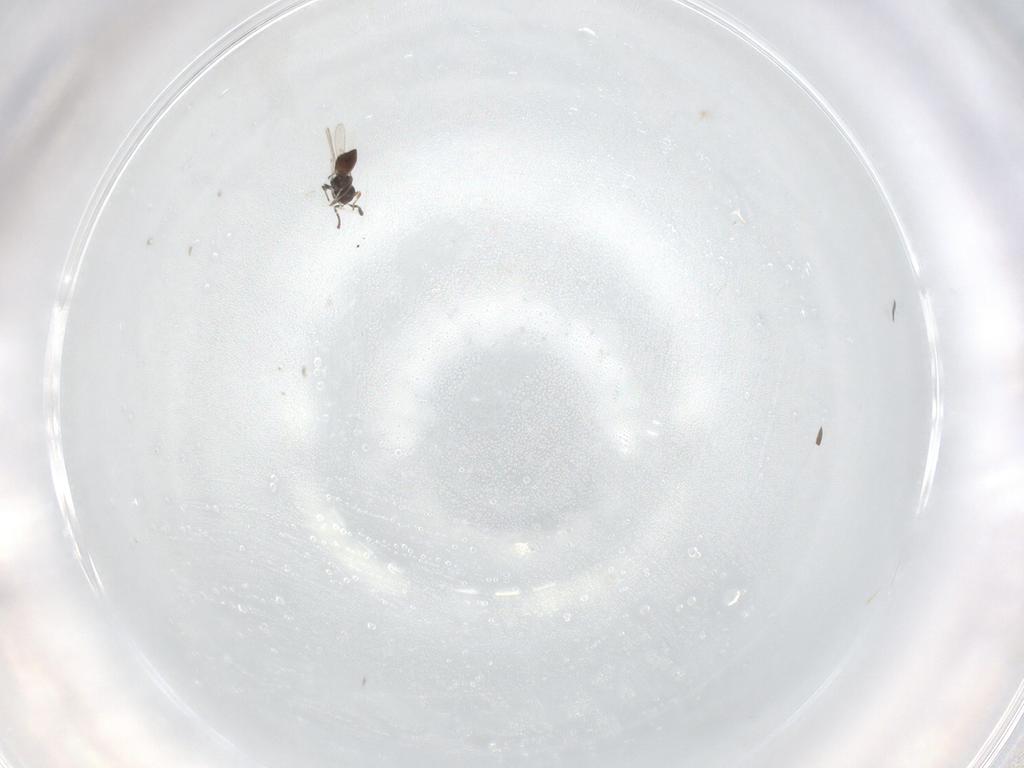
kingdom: Animalia
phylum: Arthropoda
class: Insecta
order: Hymenoptera
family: Scelionidae
